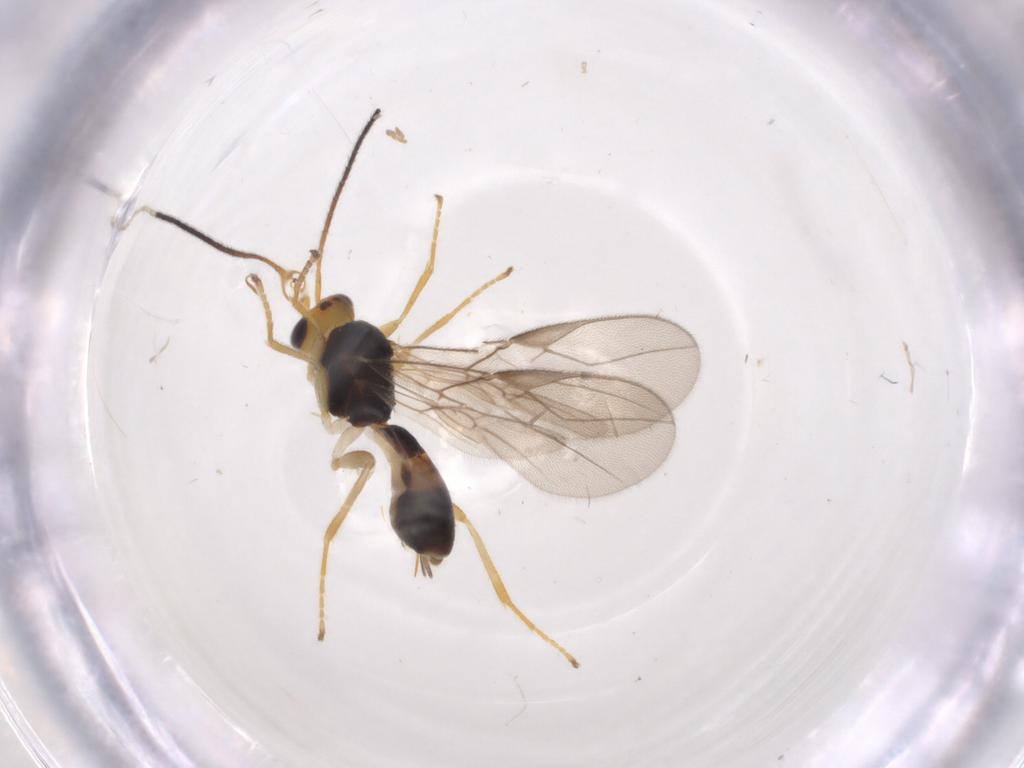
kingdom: Animalia
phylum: Arthropoda
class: Insecta
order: Hymenoptera
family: Braconidae
